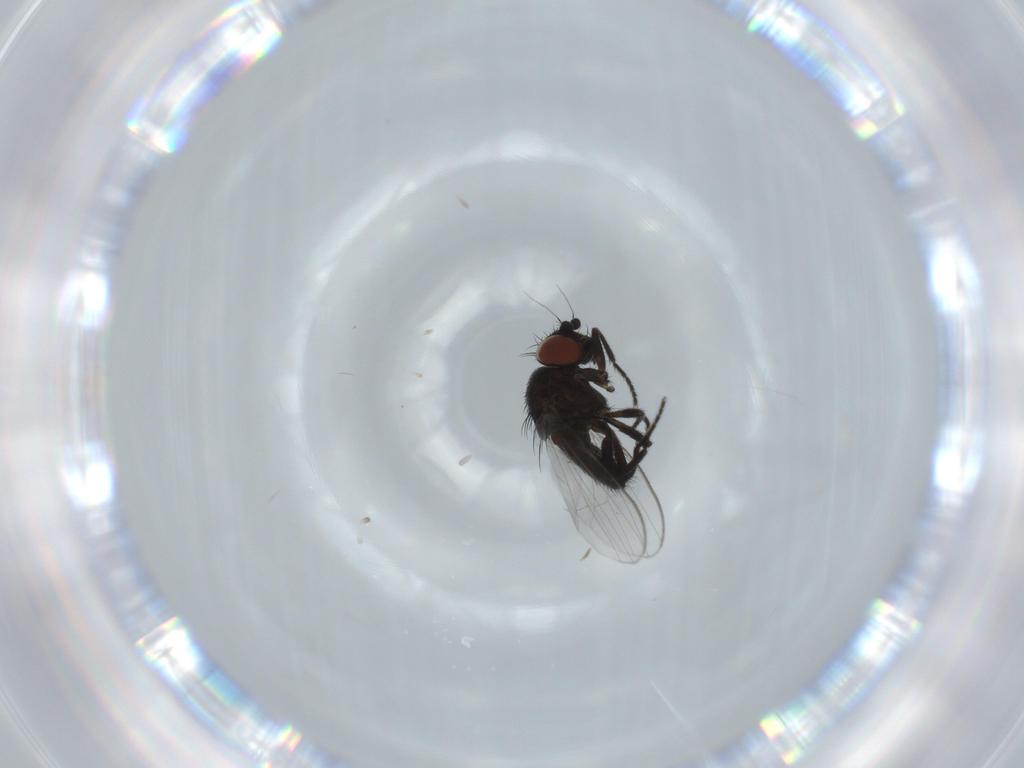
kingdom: Animalia
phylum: Arthropoda
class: Insecta
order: Diptera
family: Milichiidae
